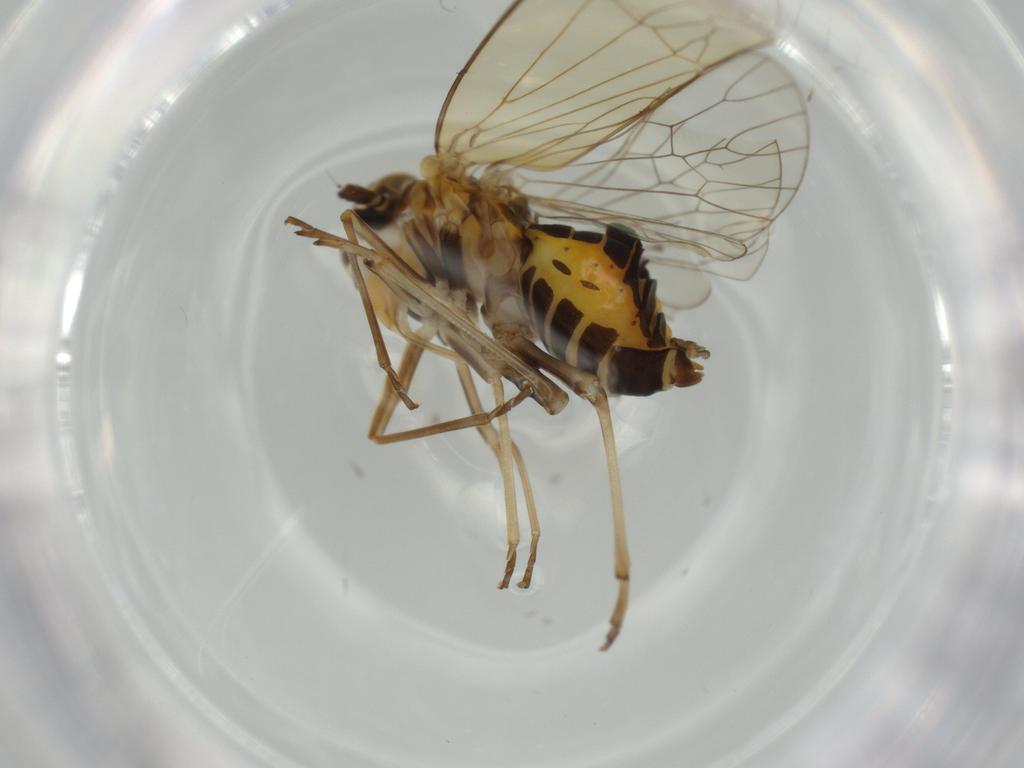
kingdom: Animalia
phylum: Arthropoda
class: Insecta
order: Hemiptera
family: Kinnaridae
